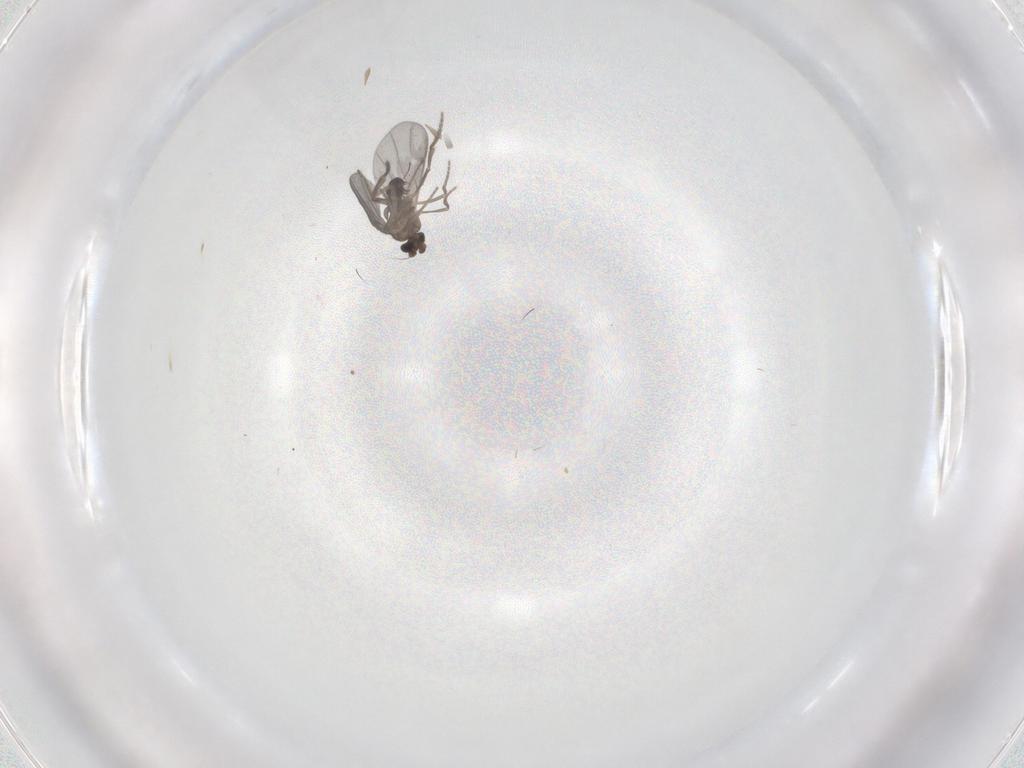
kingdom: Animalia
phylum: Arthropoda
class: Insecta
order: Diptera
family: Phoridae
